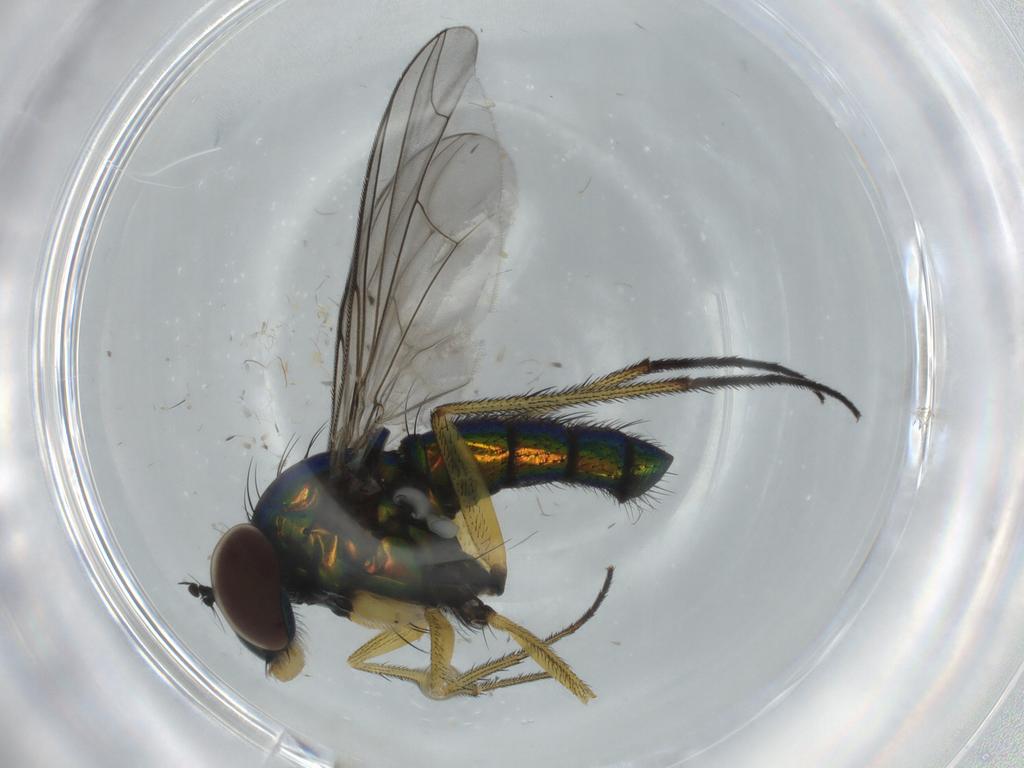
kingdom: Animalia
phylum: Arthropoda
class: Insecta
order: Diptera
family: Dolichopodidae
